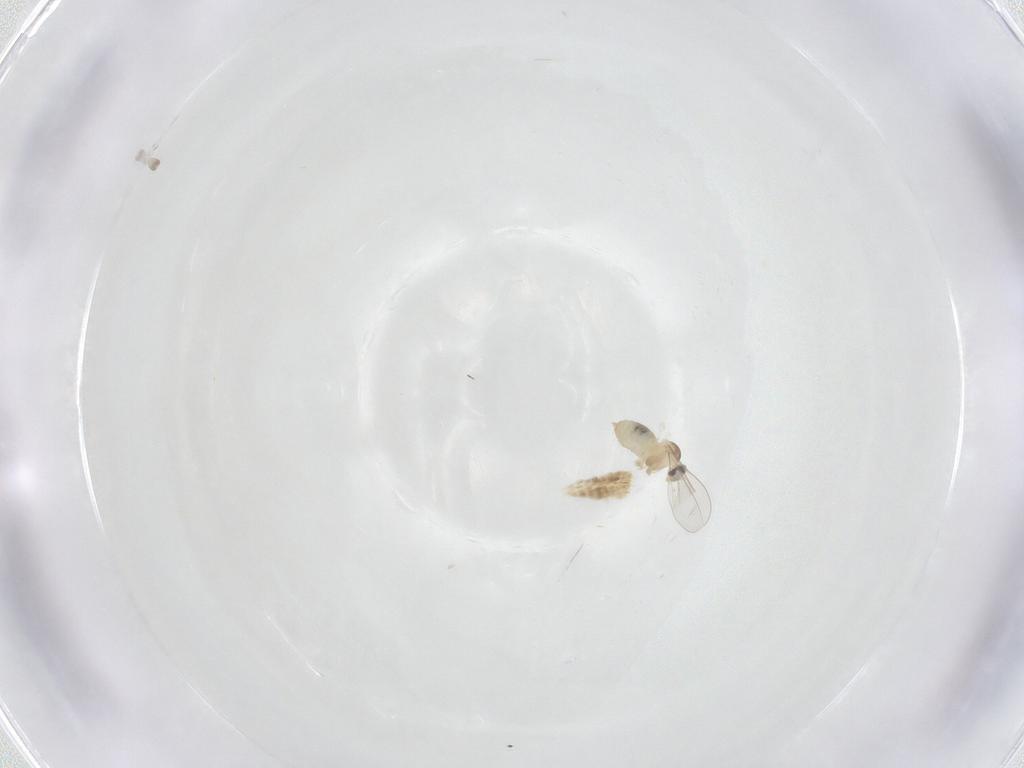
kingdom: Animalia
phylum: Arthropoda
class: Insecta
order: Diptera
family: Cecidomyiidae
